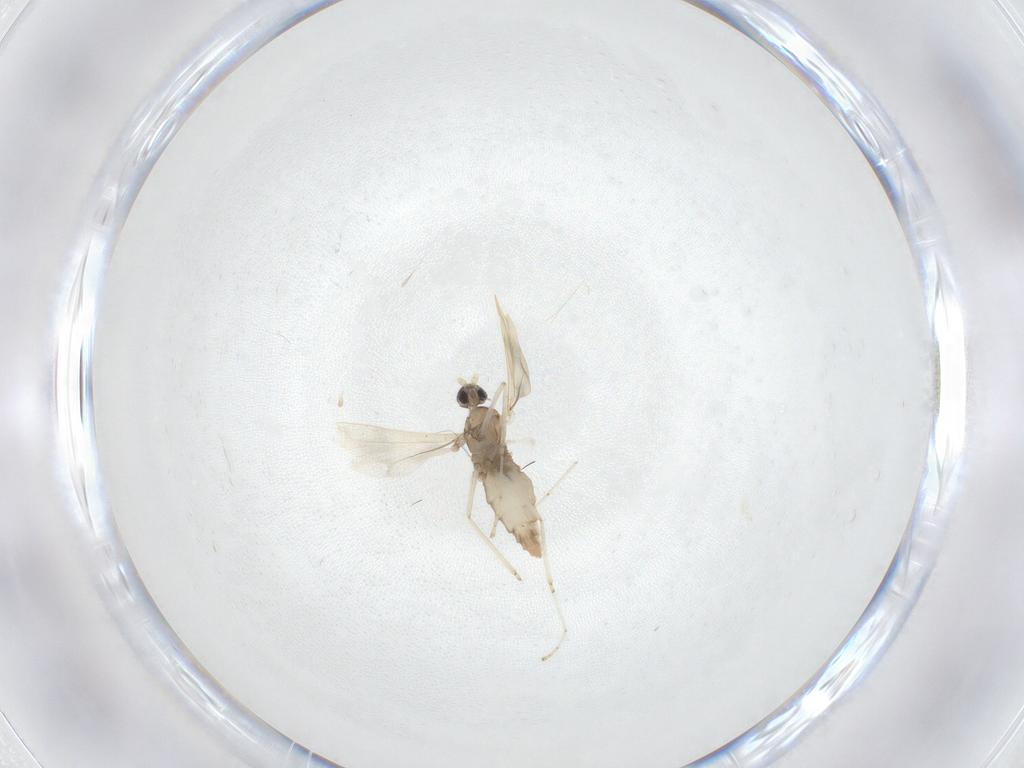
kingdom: Animalia
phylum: Arthropoda
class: Insecta
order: Diptera
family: Cecidomyiidae
